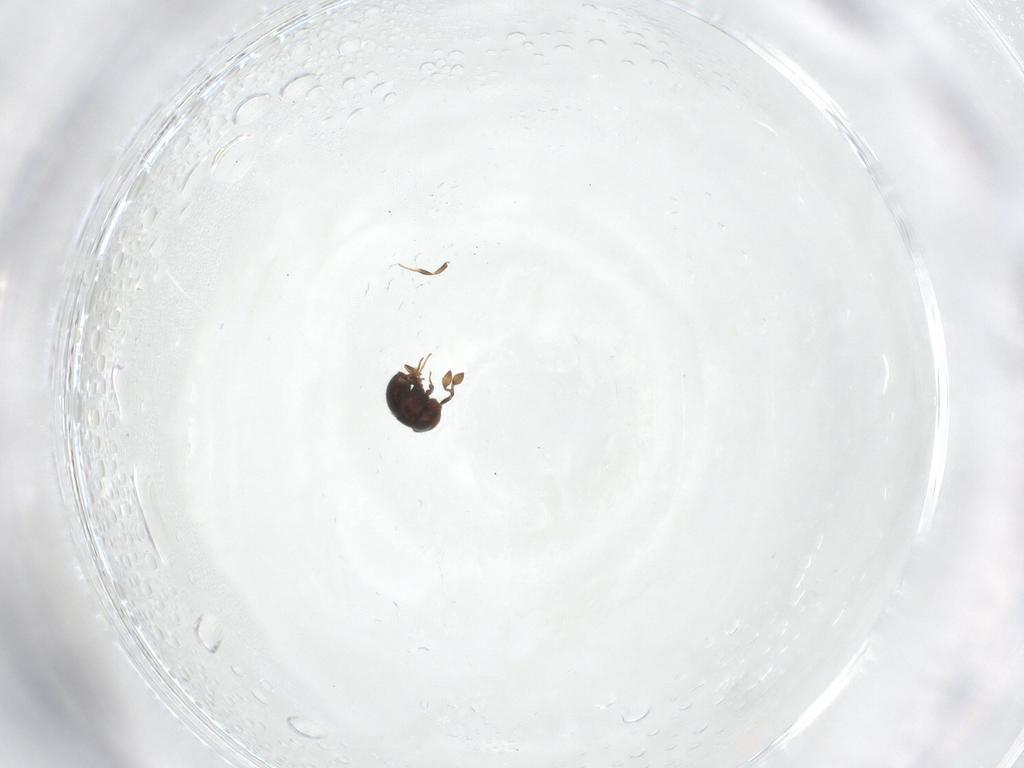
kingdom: Animalia
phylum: Arthropoda
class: Insecta
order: Hymenoptera
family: Scelionidae
